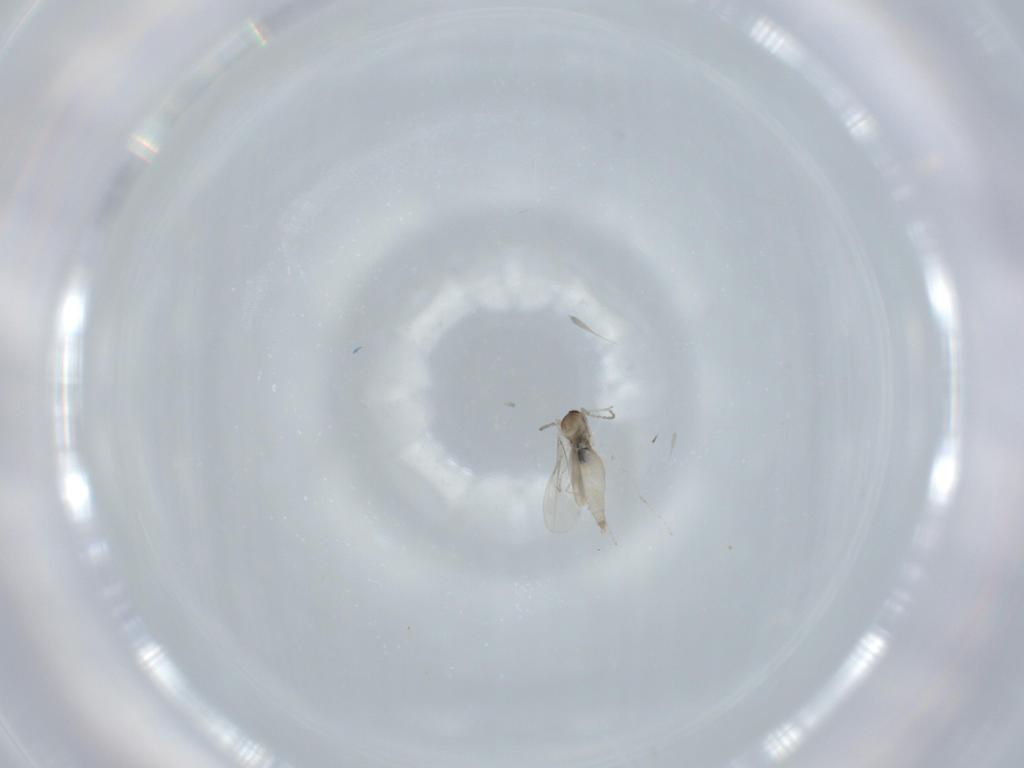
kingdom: Animalia
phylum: Arthropoda
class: Insecta
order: Diptera
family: Cecidomyiidae
